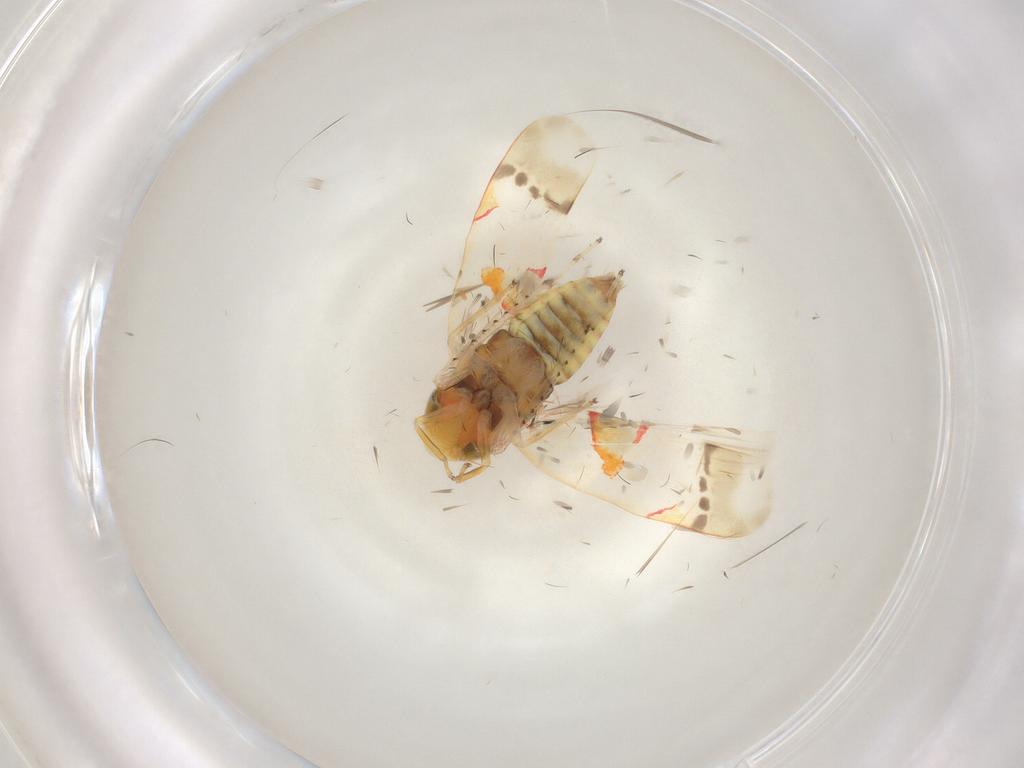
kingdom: Animalia
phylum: Arthropoda
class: Insecta
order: Hemiptera
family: Cicadellidae
